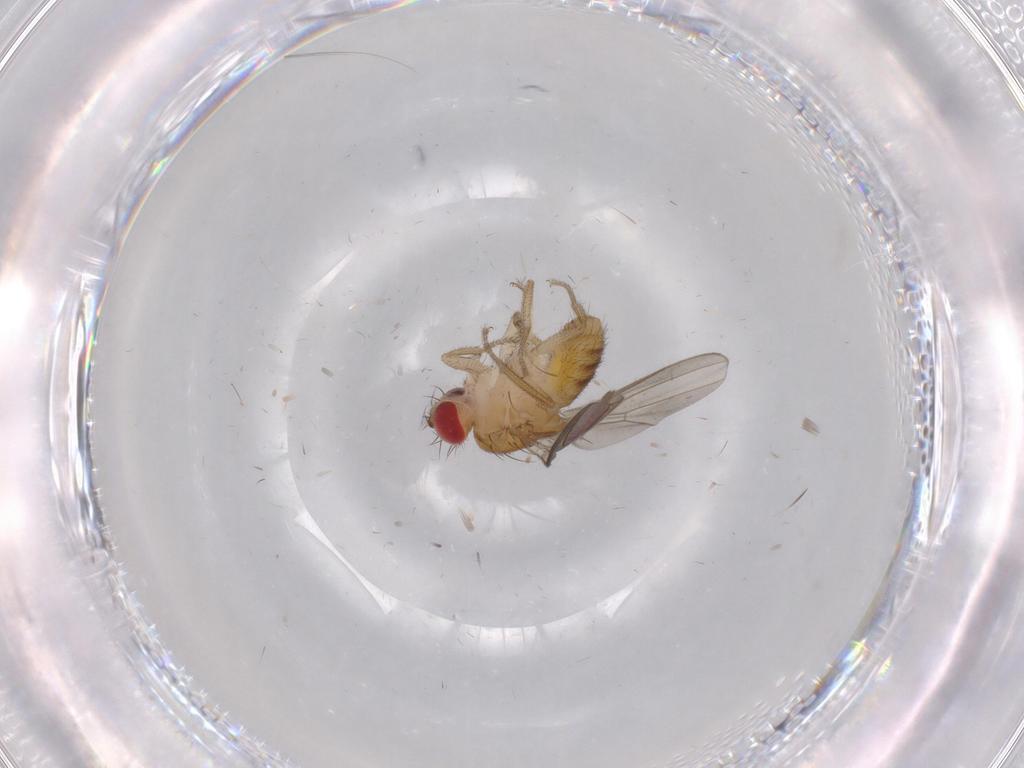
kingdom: Animalia
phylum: Arthropoda
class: Insecta
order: Diptera
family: Drosophilidae
